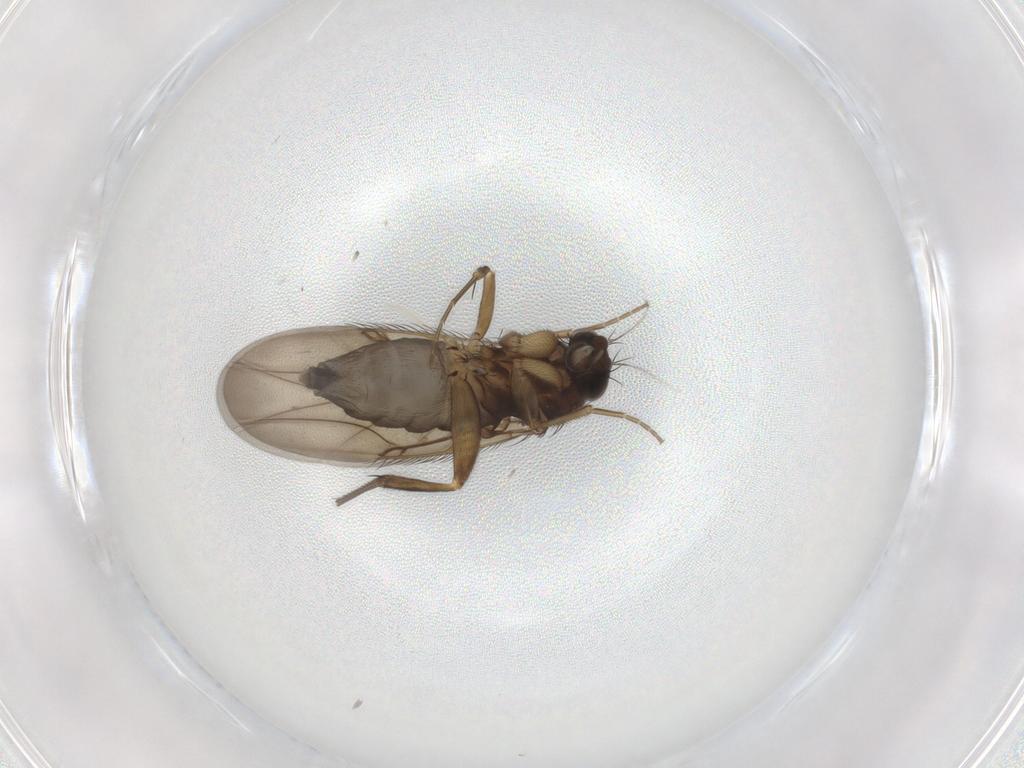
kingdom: Animalia
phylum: Arthropoda
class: Insecta
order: Diptera
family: Phoridae
